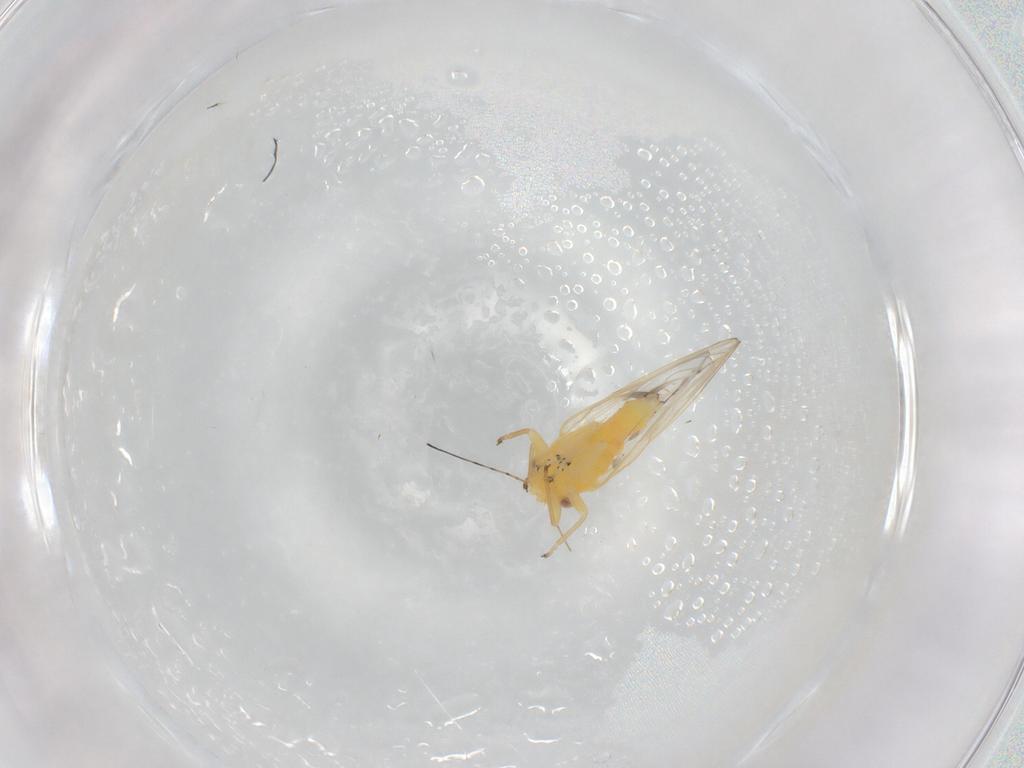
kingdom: Animalia
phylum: Arthropoda
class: Insecta
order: Hemiptera
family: Psyllidae
